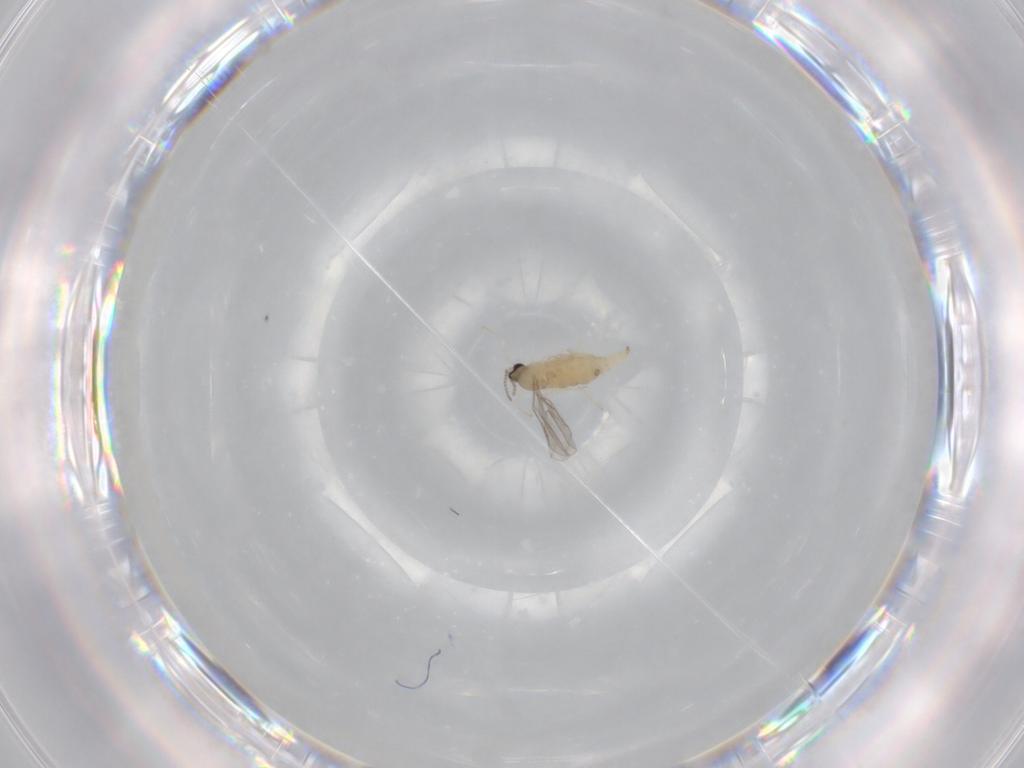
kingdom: Animalia
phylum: Arthropoda
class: Insecta
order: Diptera
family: Cecidomyiidae
